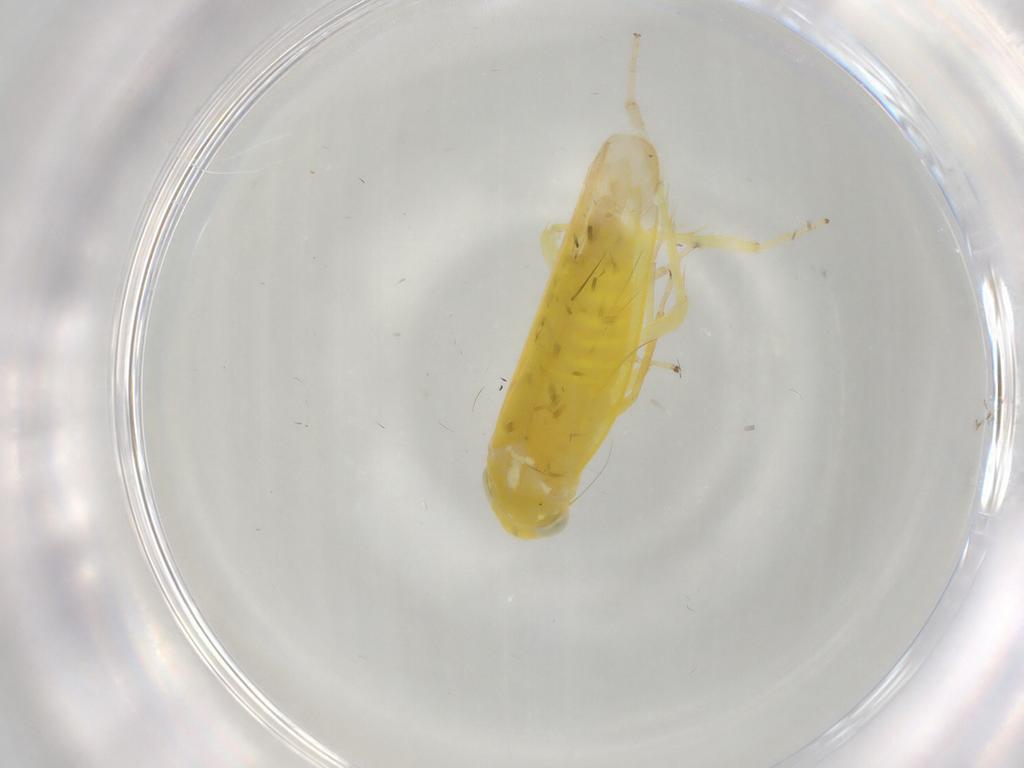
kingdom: Animalia
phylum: Arthropoda
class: Insecta
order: Hemiptera
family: Cicadellidae
